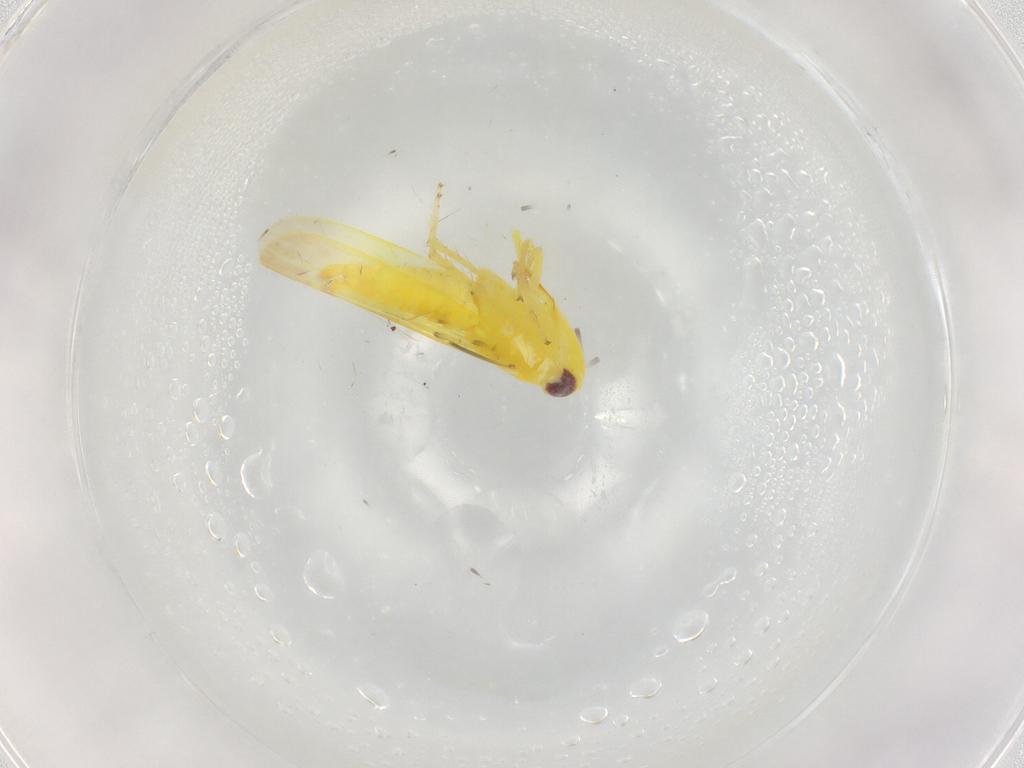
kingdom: Animalia
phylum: Arthropoda
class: Insecta
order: Hemiptera
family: Cicadellidae
